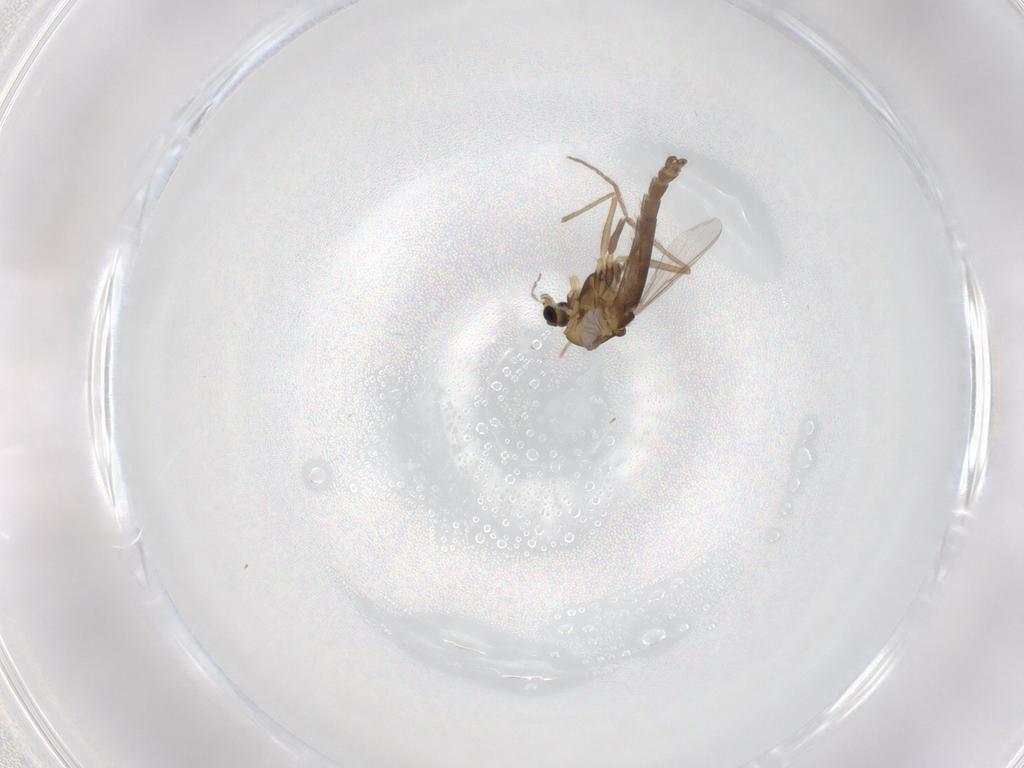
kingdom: Animalia
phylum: Arthropoda
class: Insecta
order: Diptera
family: Chironomidae
